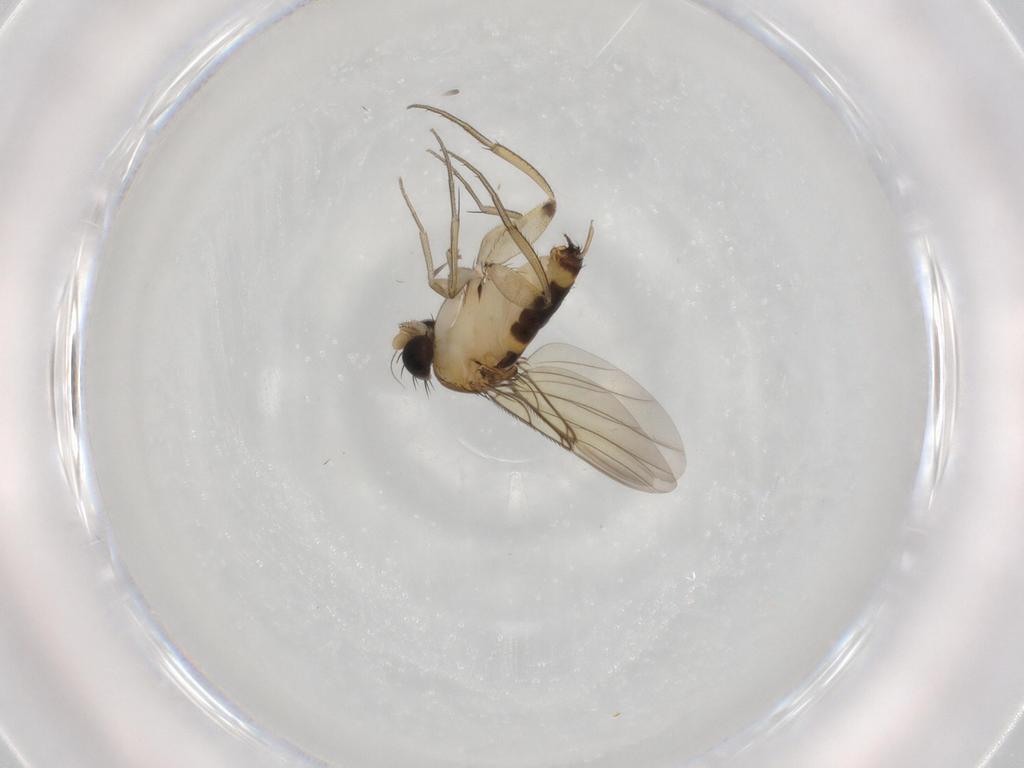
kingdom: Animalia
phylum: Arthropoda
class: Insecta
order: Diptera
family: Phoridae
